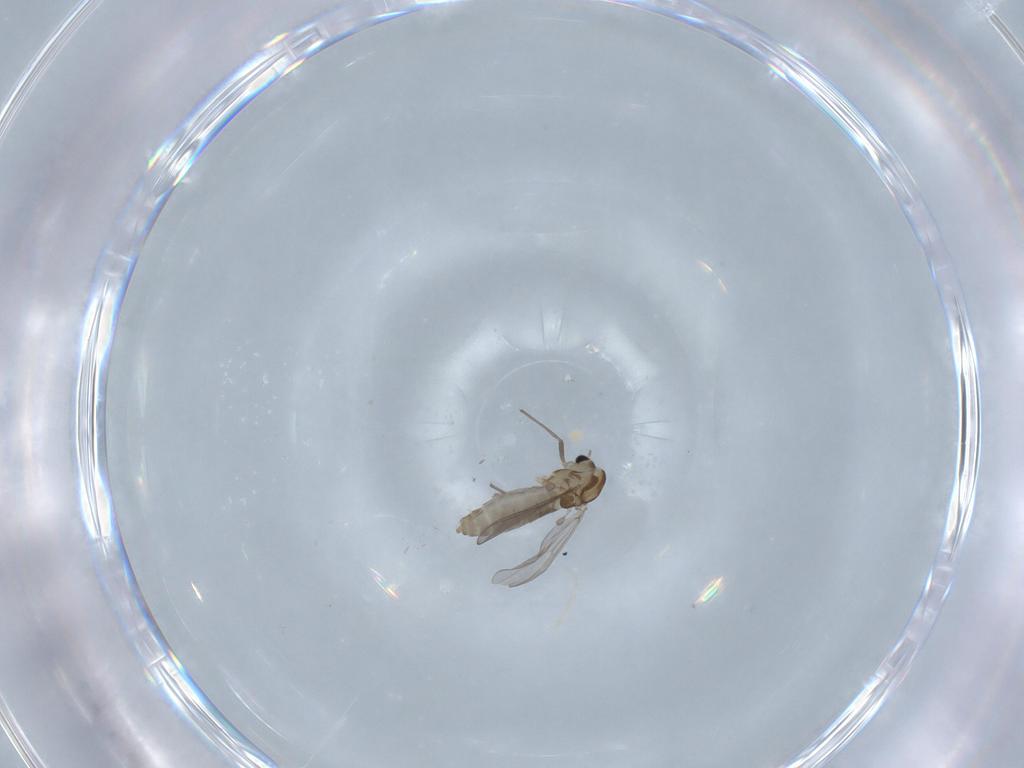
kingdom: Animalia
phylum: Arthropoda
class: Insecta
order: Diptera
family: Chironomidae
